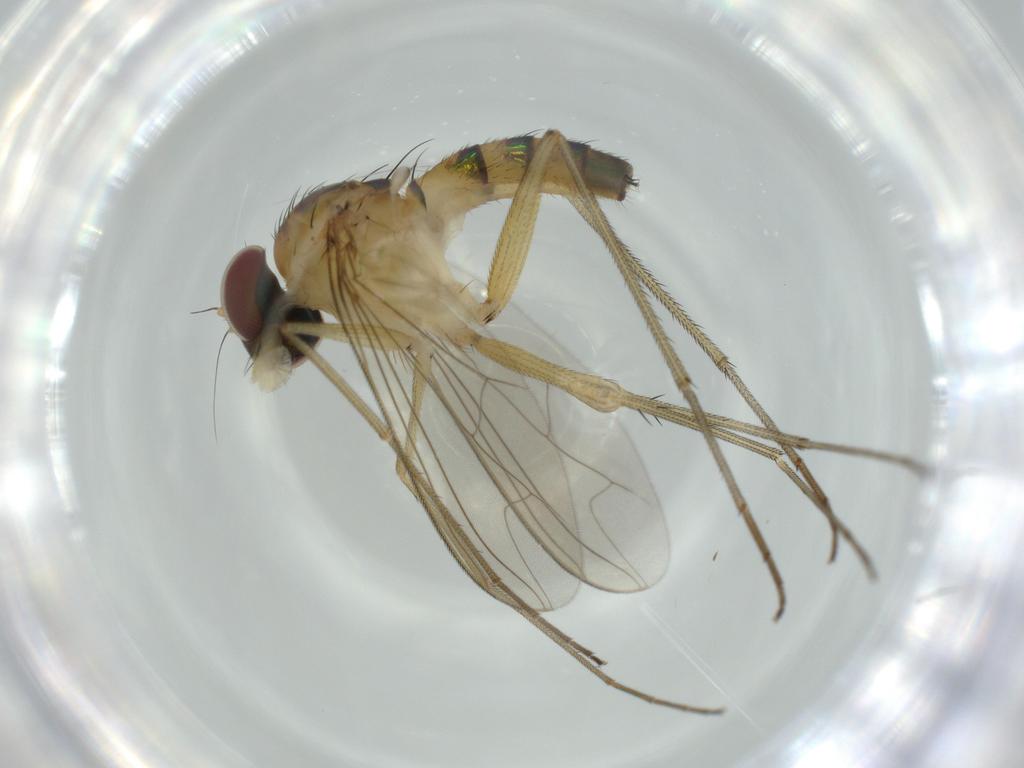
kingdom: Animalia
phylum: Arthropoda
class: Insecta
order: Diptera
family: Dolichopodidae
